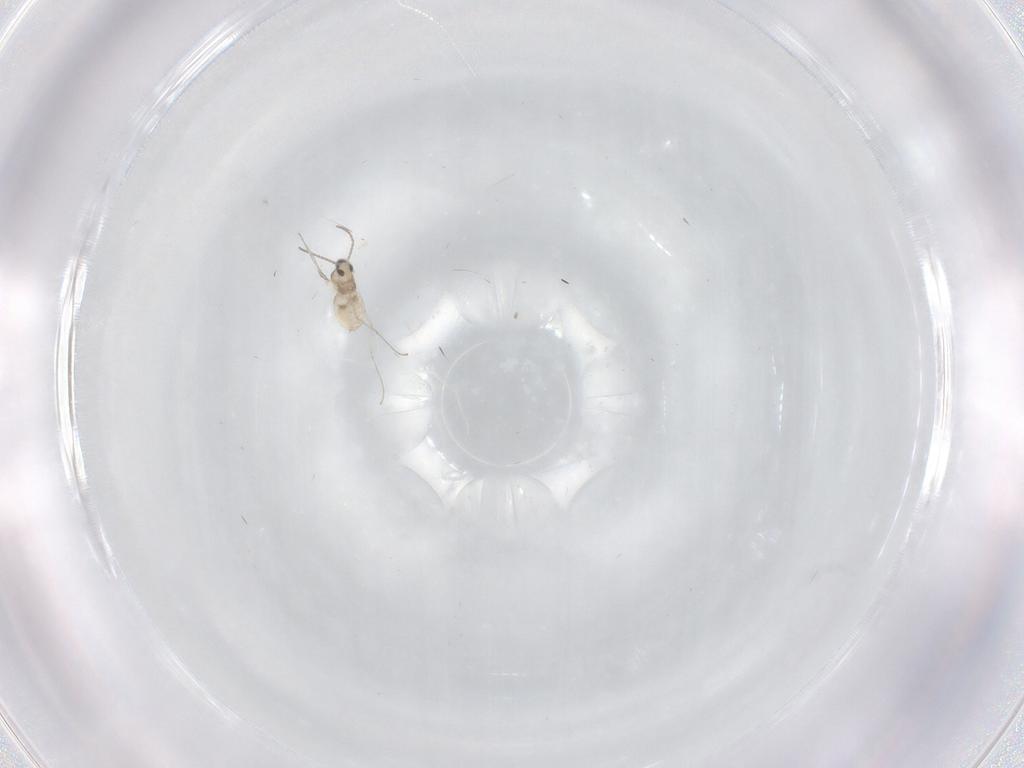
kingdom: Animalia
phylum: Arthropoda
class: Insecta
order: Diptera
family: Cecidomyiidae
